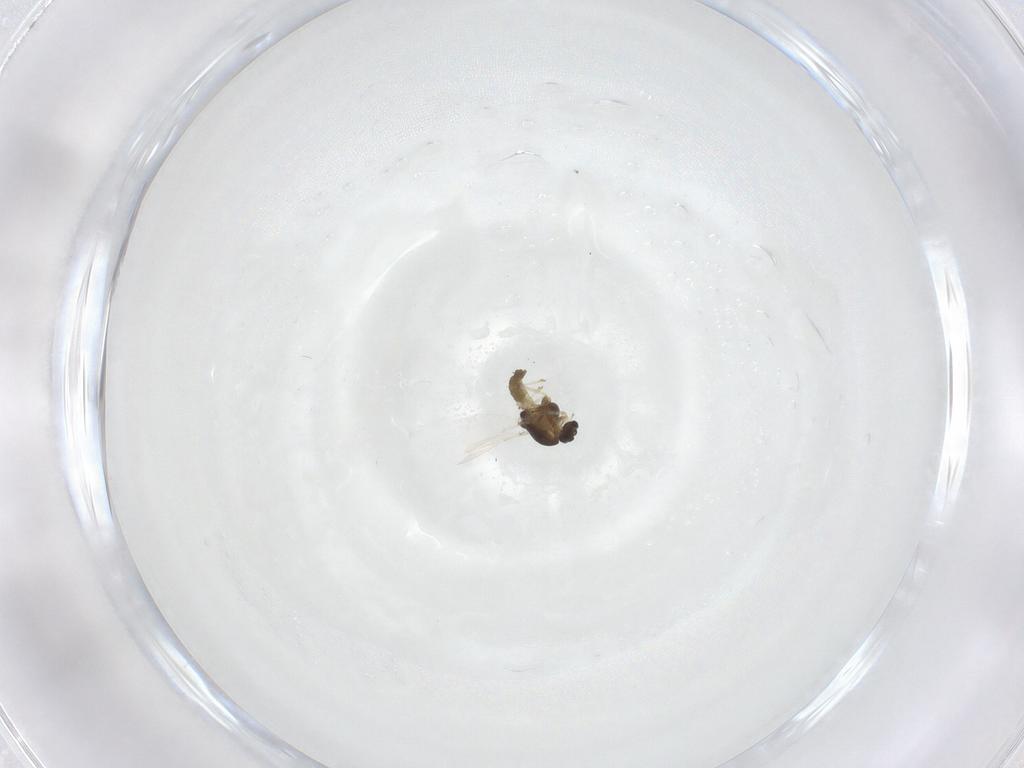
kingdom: Animalia
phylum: Arthropoda
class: Insecta
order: Diptera
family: Chironomidae
